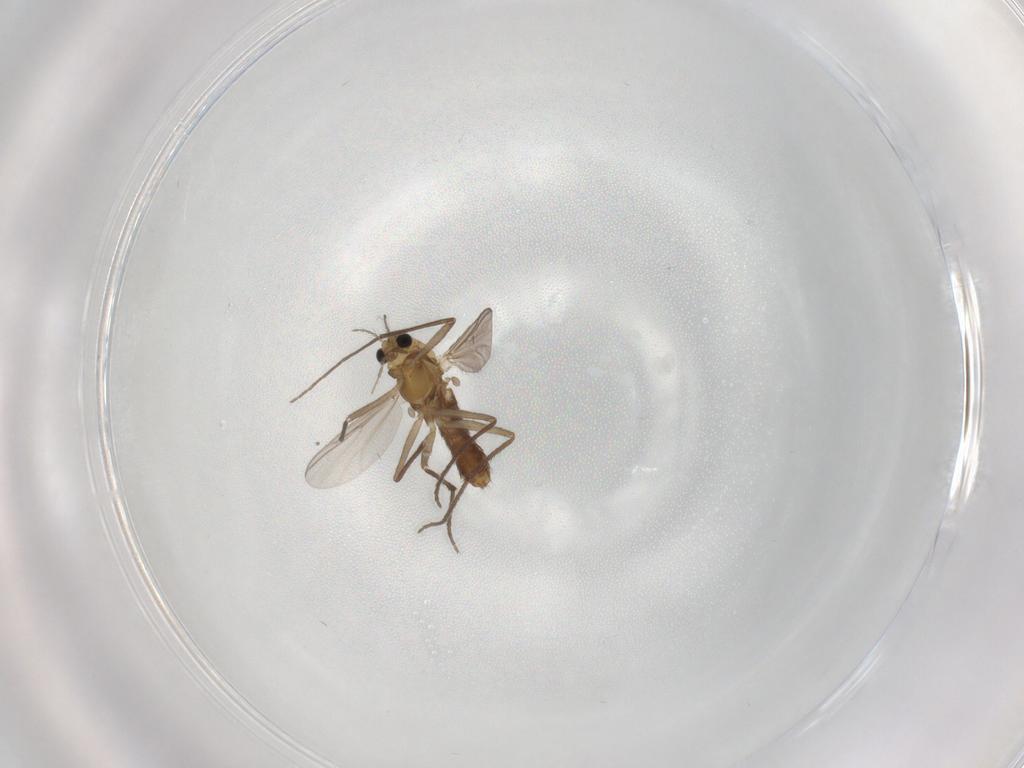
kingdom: Animalia
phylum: Arthropoda
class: Insecta
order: Diptera
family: Chironomidae
